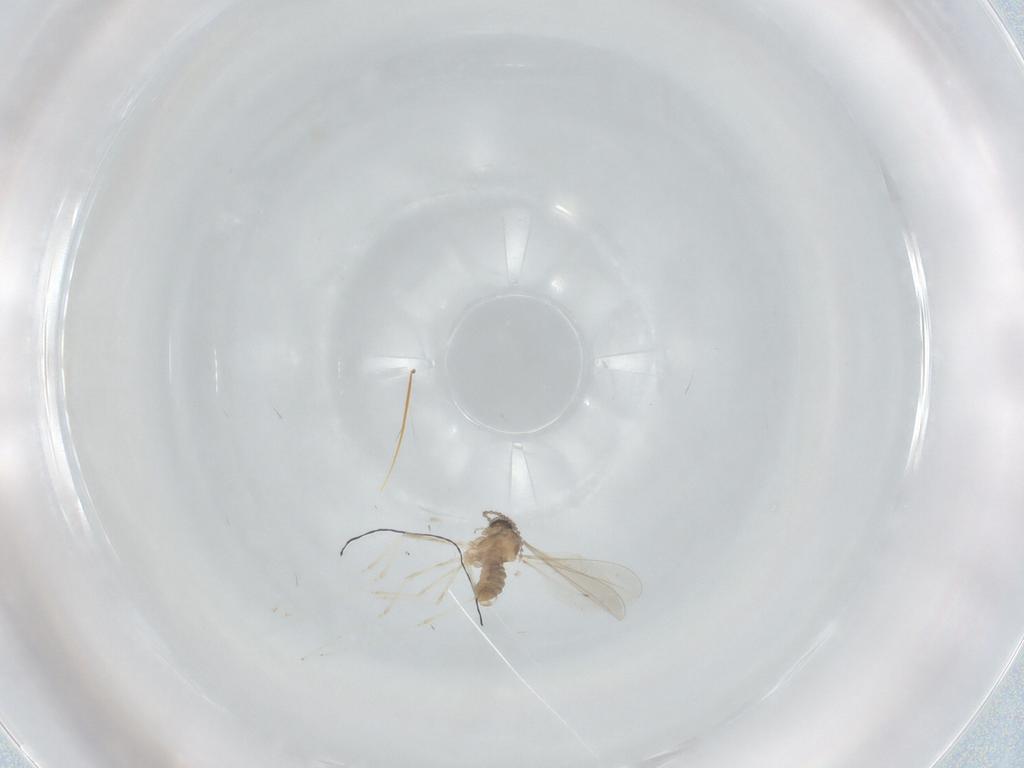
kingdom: Animalia
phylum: Arthropoda
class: Insecta
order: Diptera
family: Cecidomyiidae
